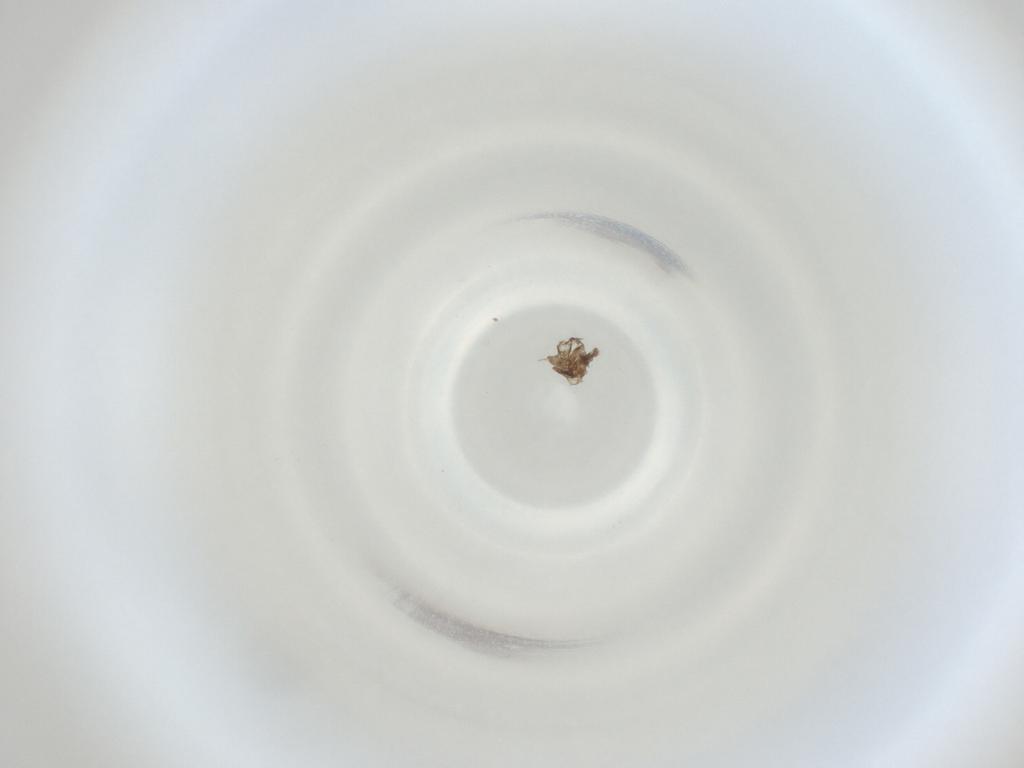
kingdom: Animalia
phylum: Arthropoda
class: Insecta
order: Diptera
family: Cecidomyiidae
